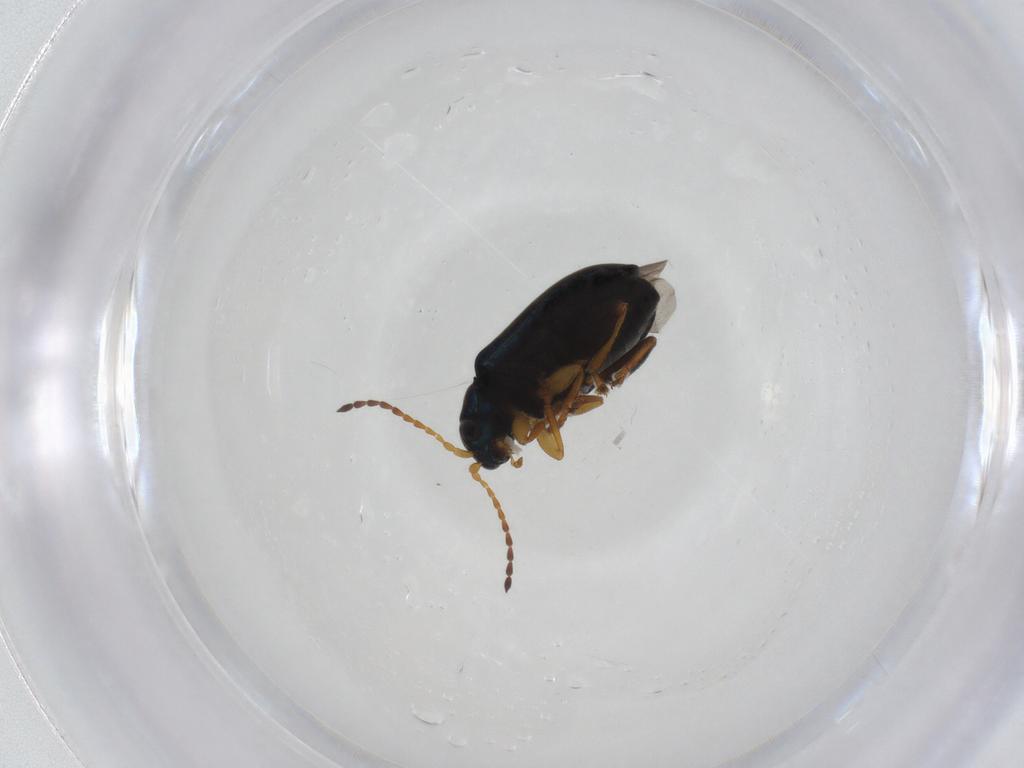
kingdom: Animalia
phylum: Arthropoda
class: Insecta
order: Coleoptera
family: Chrysomelidae
